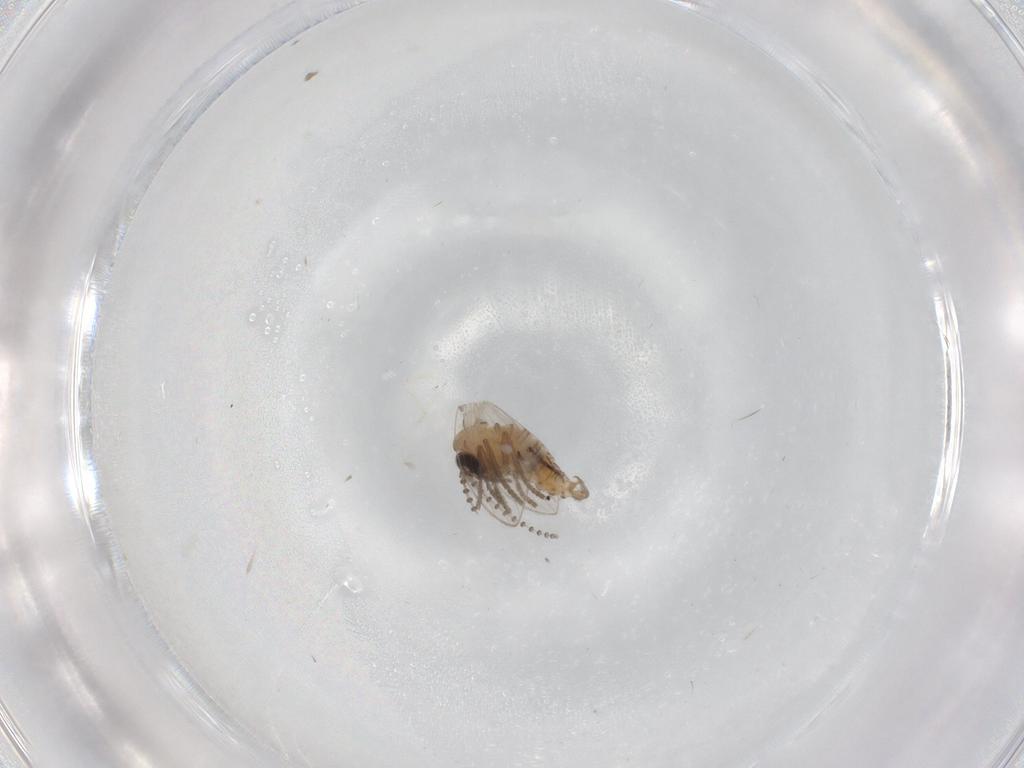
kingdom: Animalia
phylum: Arthropoda
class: Insecta
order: Diptera
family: Psychodidae
